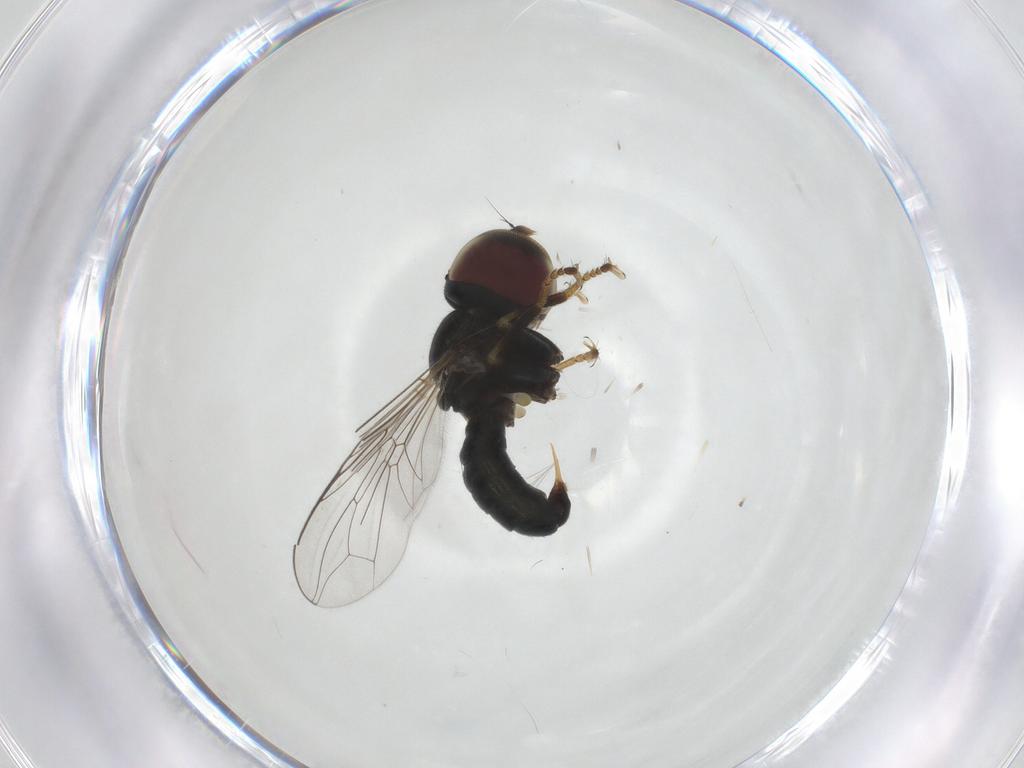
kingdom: Animalia
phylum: Arthropoda
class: Insecta
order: Diptera
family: Pipunculidae
